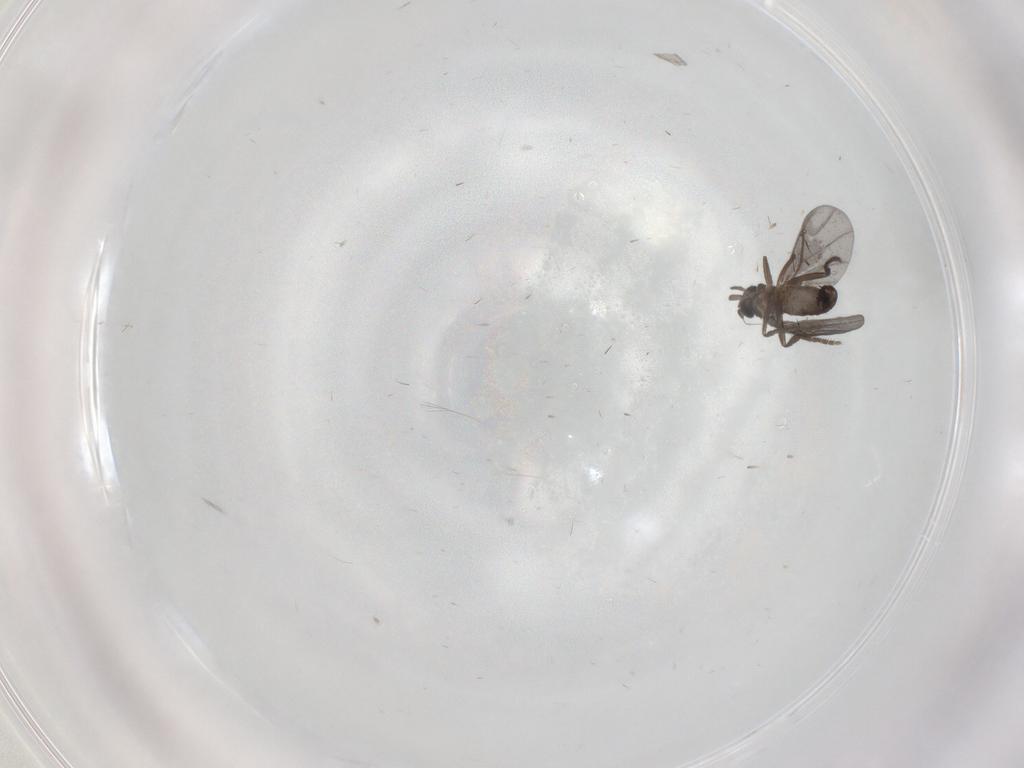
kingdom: Animalia
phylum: Arthropoda
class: Insecta
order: Diptera
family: Phoridae
